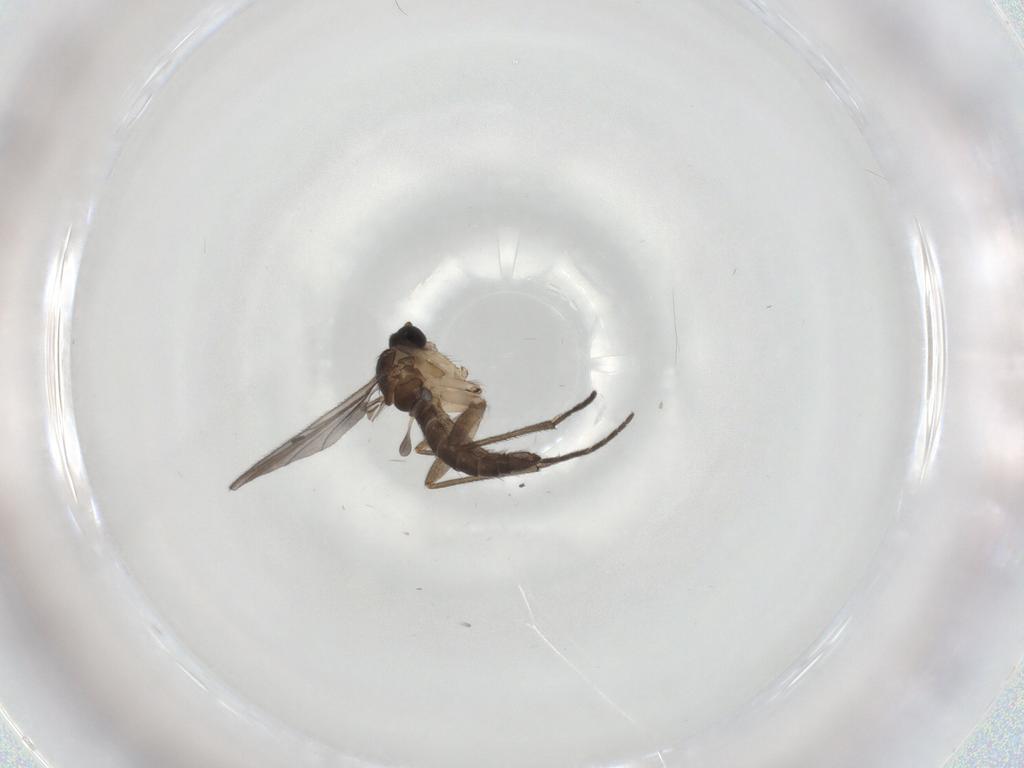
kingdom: Animalia
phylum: Arthropoda
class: Insecta
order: Diptera
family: Sciaridae
